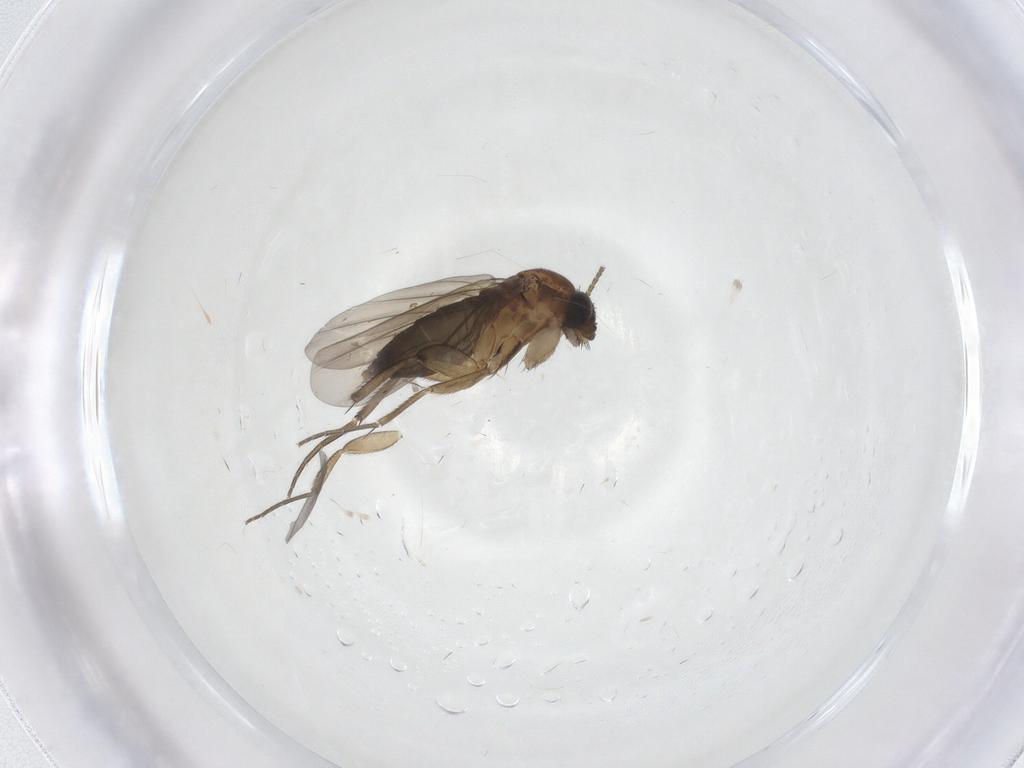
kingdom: Animalia
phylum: Arthropoda
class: Insecta
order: Diptera
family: Phoridae
